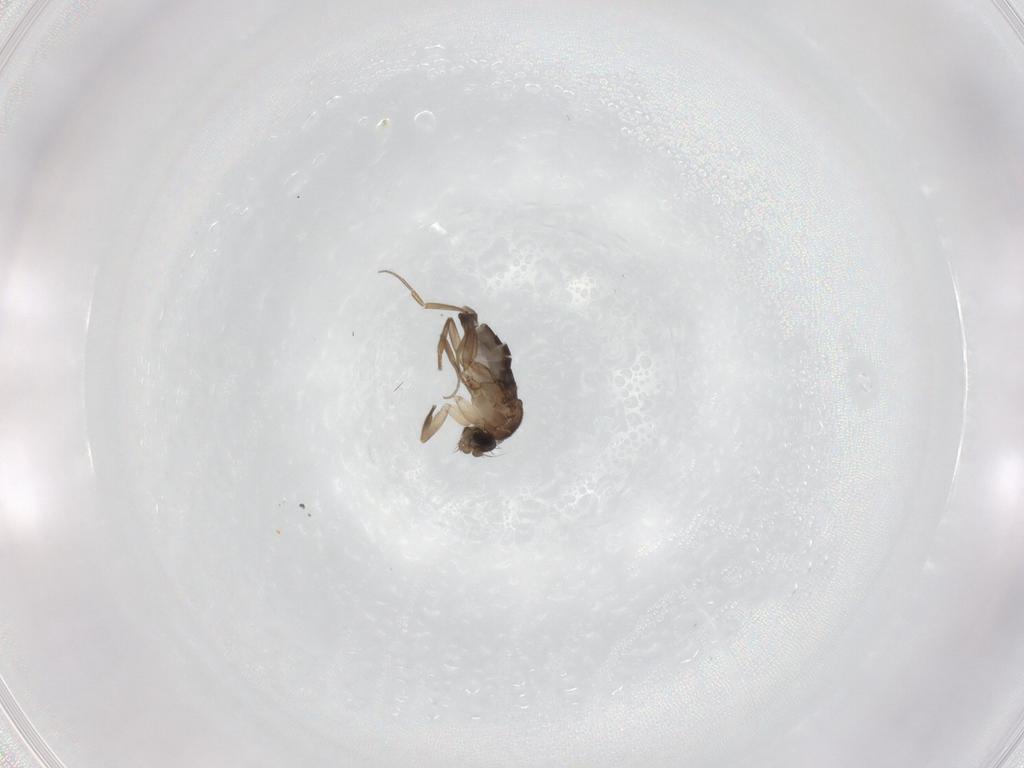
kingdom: Animalia
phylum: Arthropoda
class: Insecta
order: Diptera
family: Phoridae
